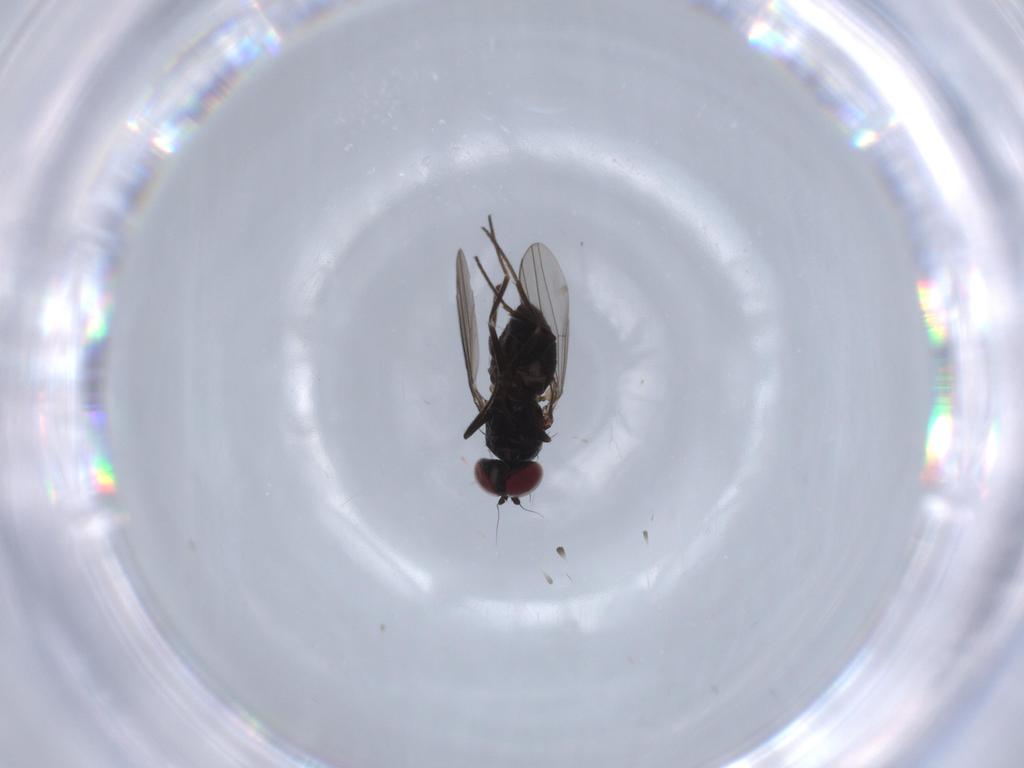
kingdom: Animalia
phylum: Arthropoda
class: Insecta
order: Diptera
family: Dolichopodidae
